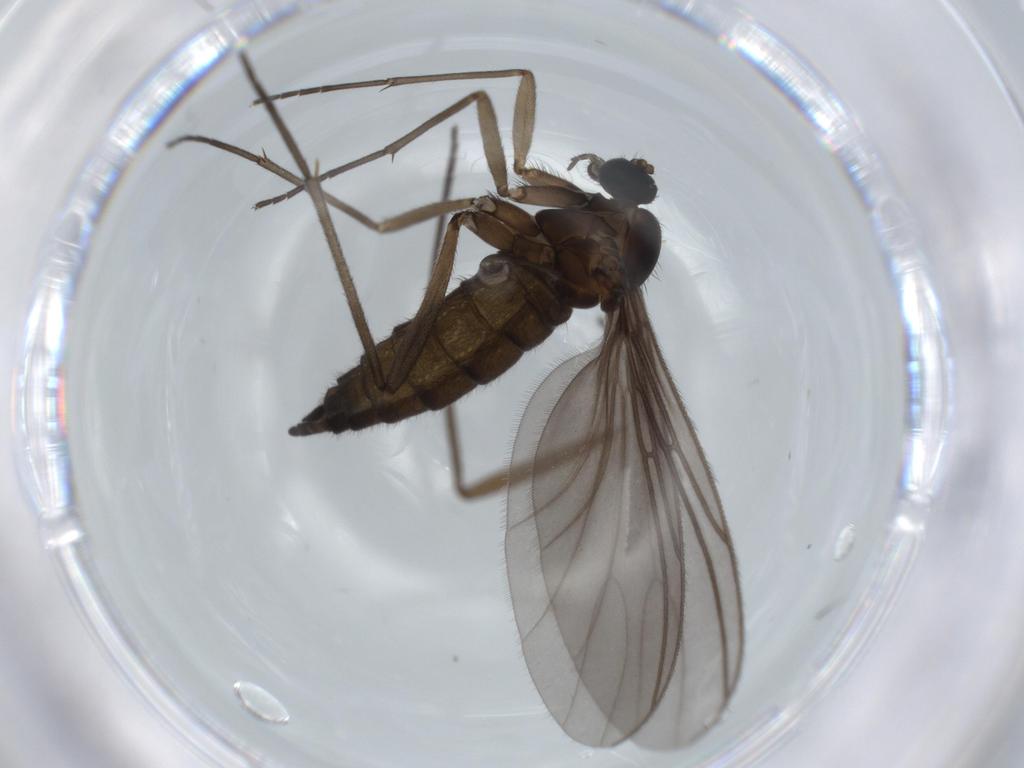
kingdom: Animalia
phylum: Arthropoda
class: Insecta
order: Diptera
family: Sciaridae
